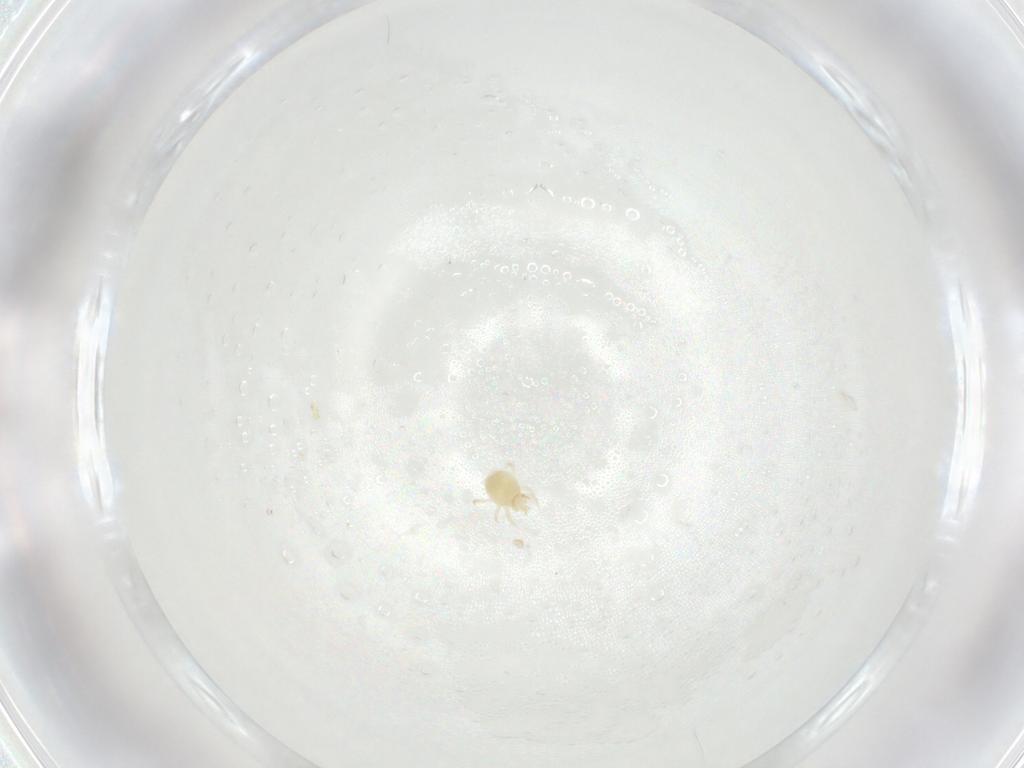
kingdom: Animalia
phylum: Arthropoda
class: Arachnida
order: Mesostigmata
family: Phytoseiidae
